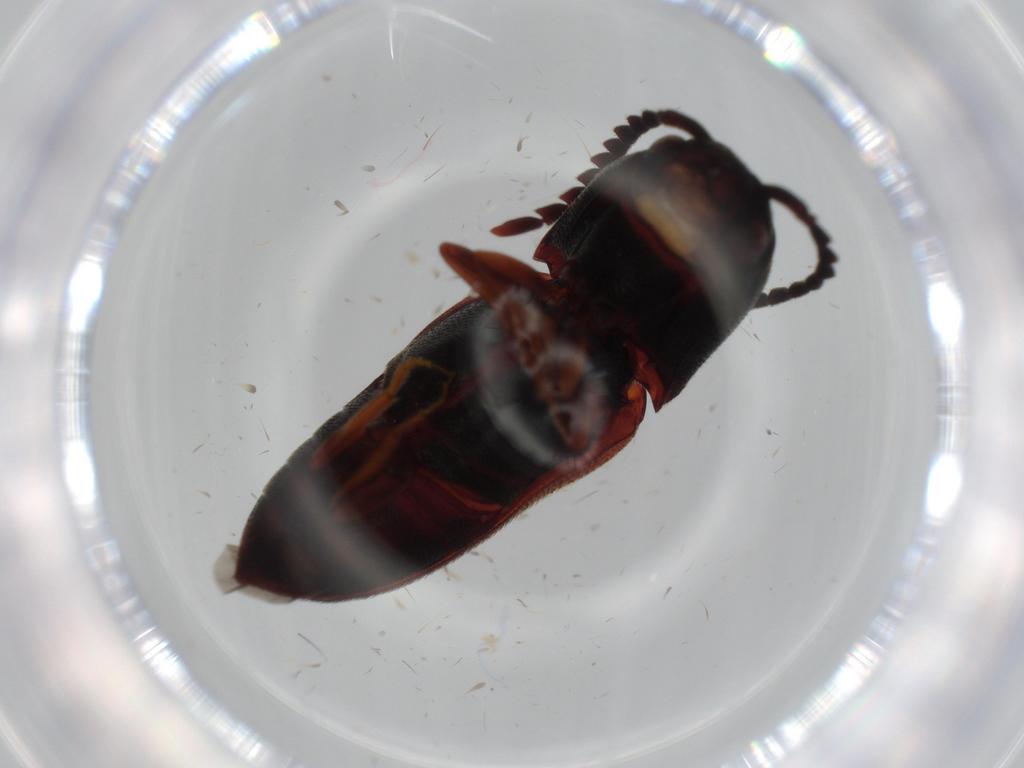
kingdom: Animalia
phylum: Arthropoda
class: Insecta
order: Coleoptera
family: Eucnemidae
